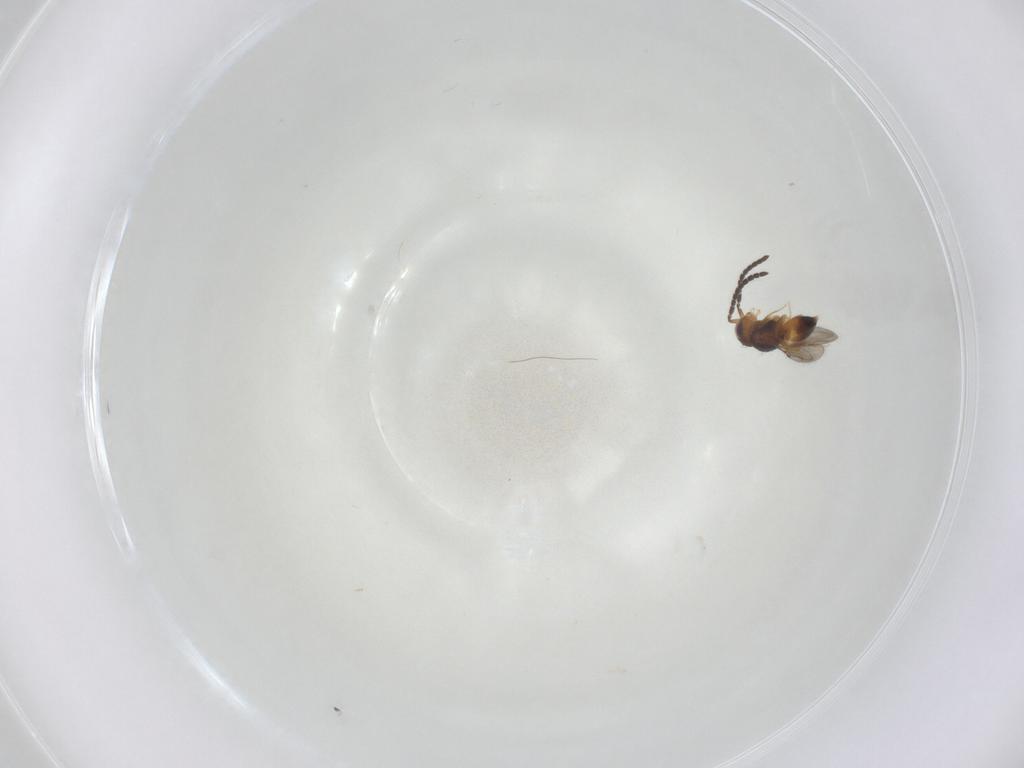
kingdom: Animalia
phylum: Arthropoda
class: Insecta
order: Hymenoptera
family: Ceraphronidae
